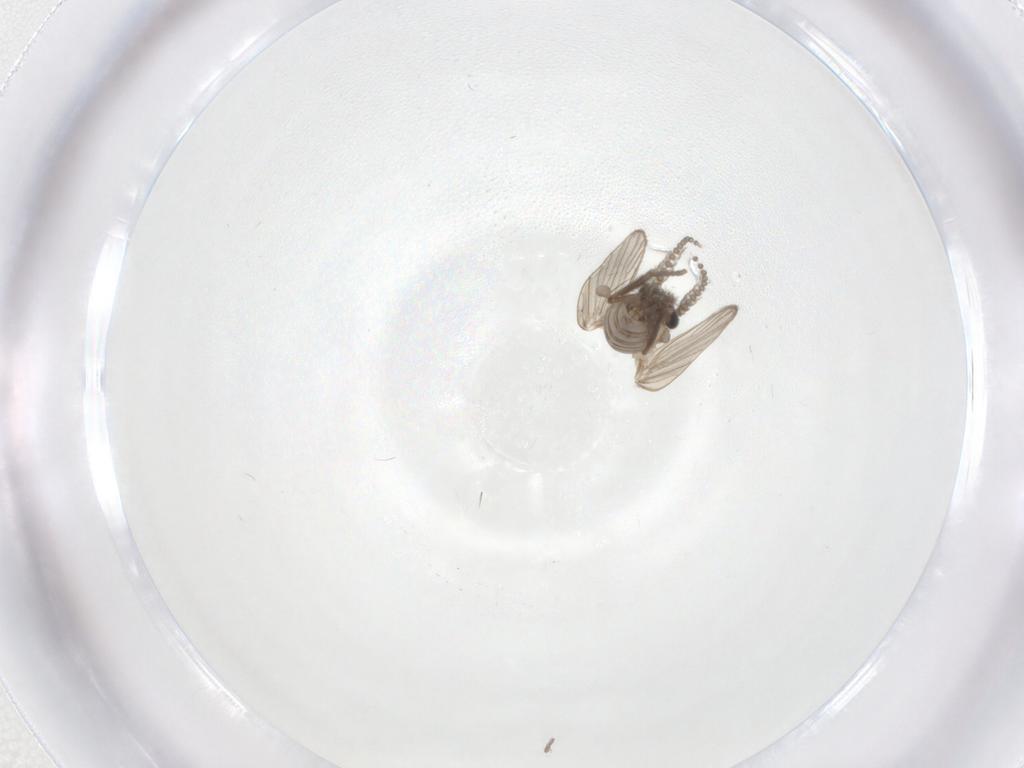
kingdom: Animalia
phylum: Arthropoda
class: Insecta
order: Diptera
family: Psychodidae
